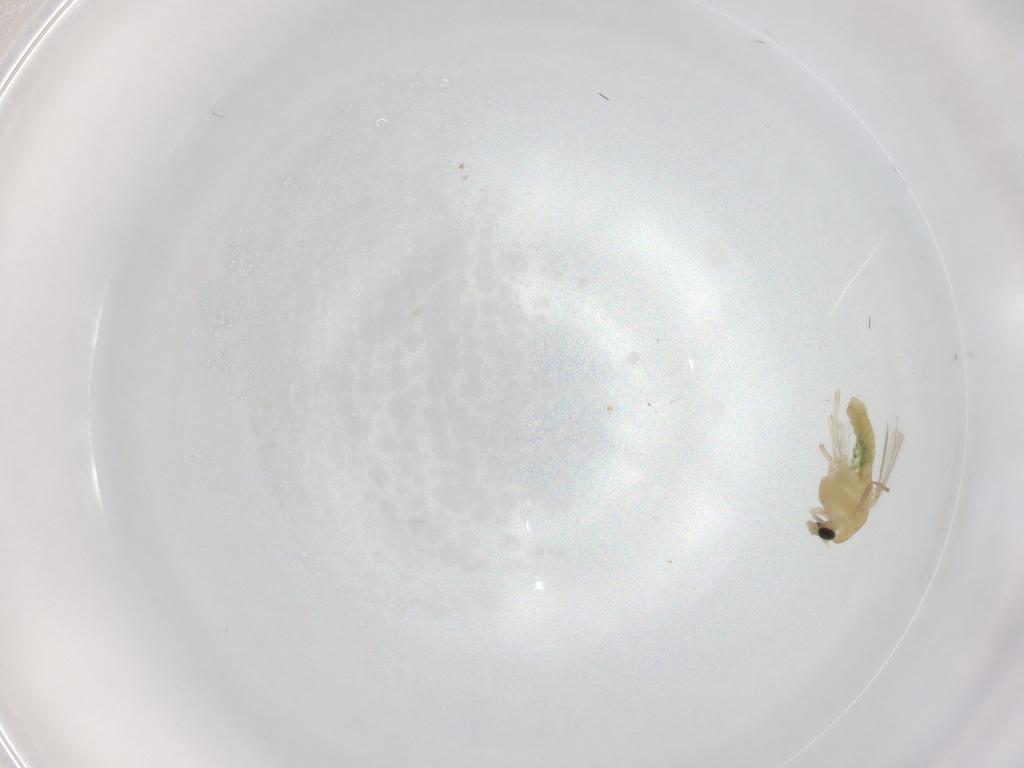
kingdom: Animalia
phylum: Arthropoda
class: Insecta
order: Diptera
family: Chironomidae
